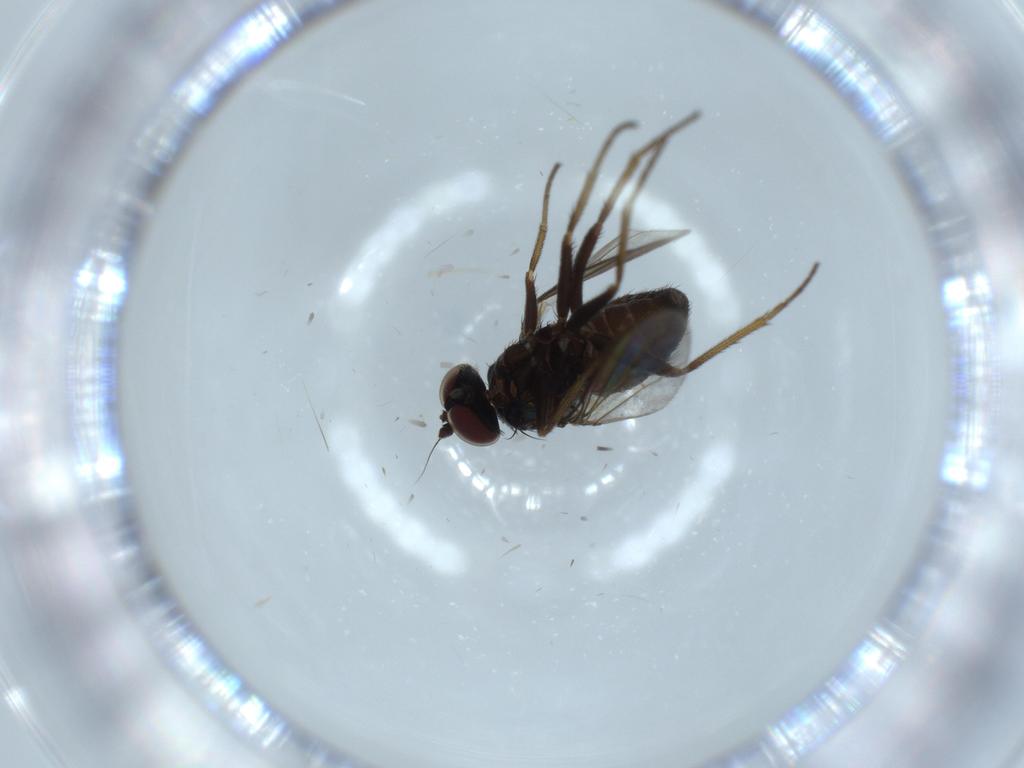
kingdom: Animalia
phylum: Arthropoda
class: Insecta
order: Diptera
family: Dolichopodidae
